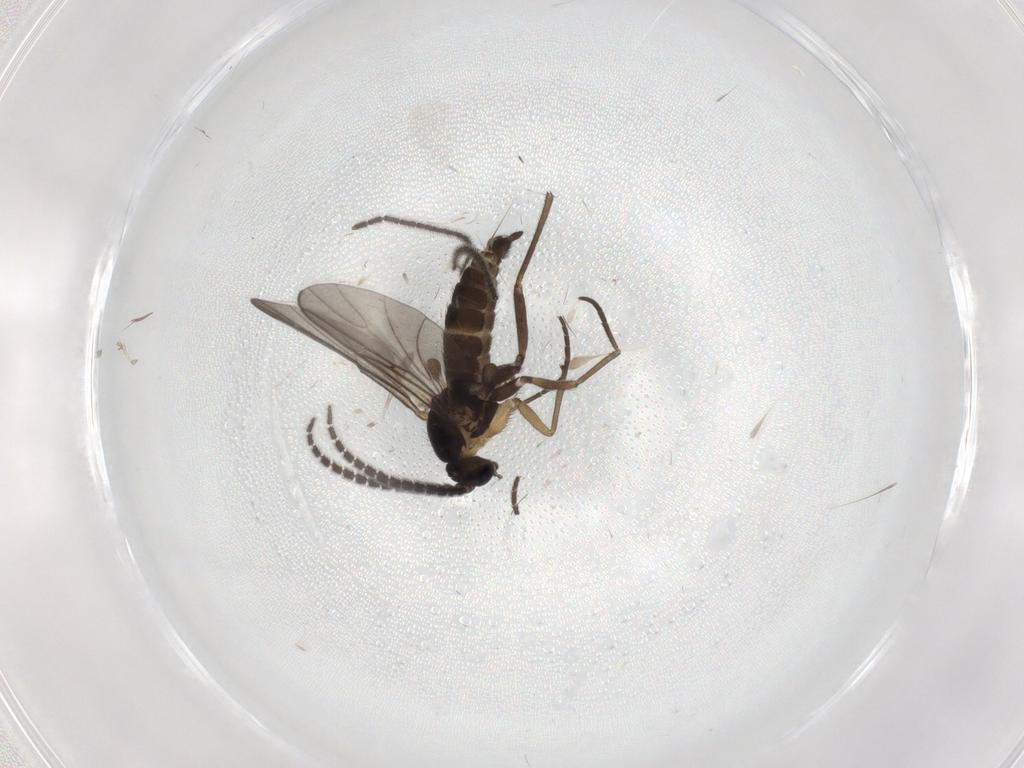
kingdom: Animalia
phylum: Arthropoda
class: Insecta
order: Diptera
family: Sciaridae
